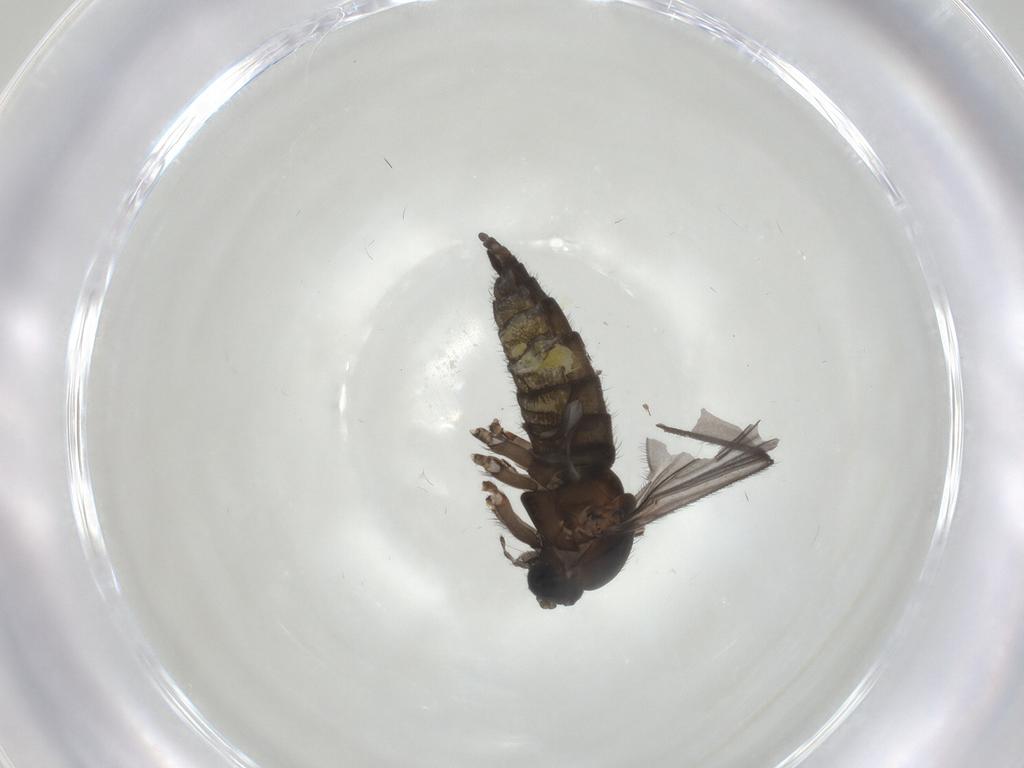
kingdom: Animalia
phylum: Arthropoda
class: Insecta
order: Diptera
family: Sciaridae
